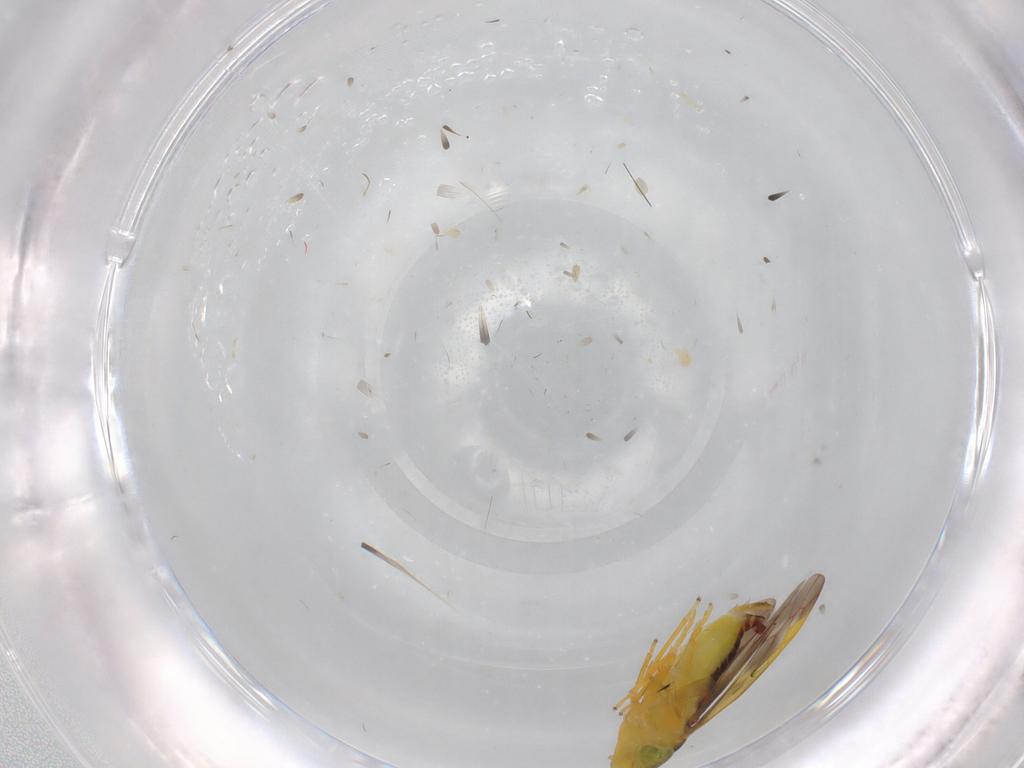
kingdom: Animalia
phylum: Arthropoda
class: Insecta
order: Hemiptera
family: Cicadellidae
